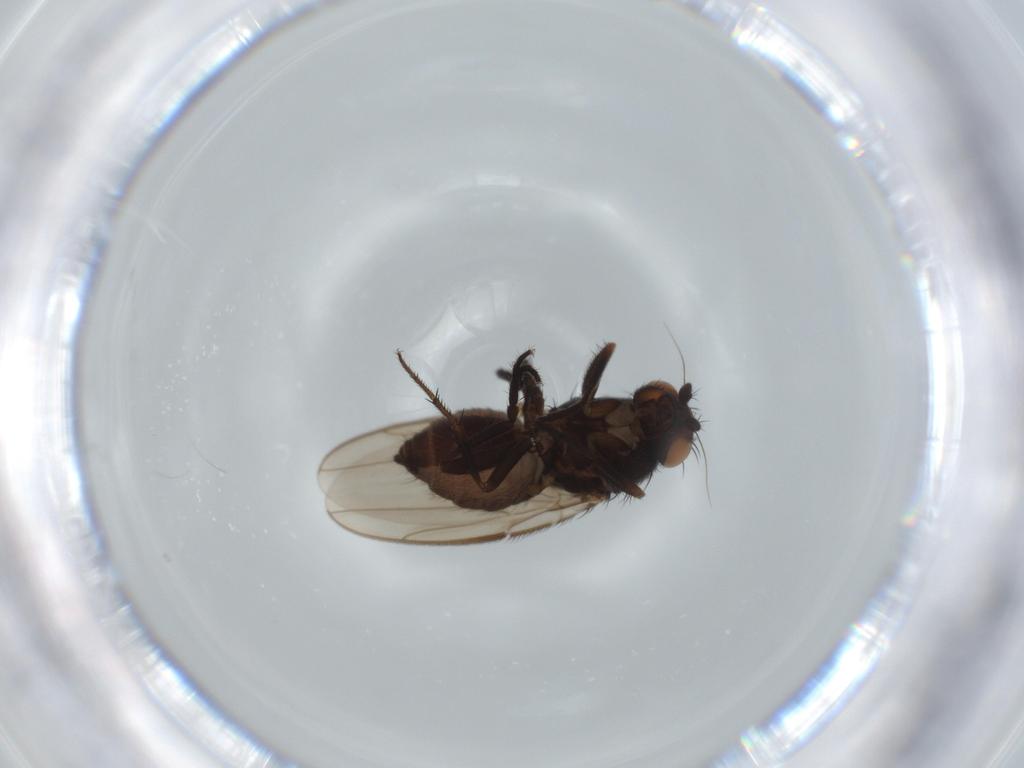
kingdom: Animalia
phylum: Arthropoda
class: Insecta
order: Diptera
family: Sphaeroceridae
